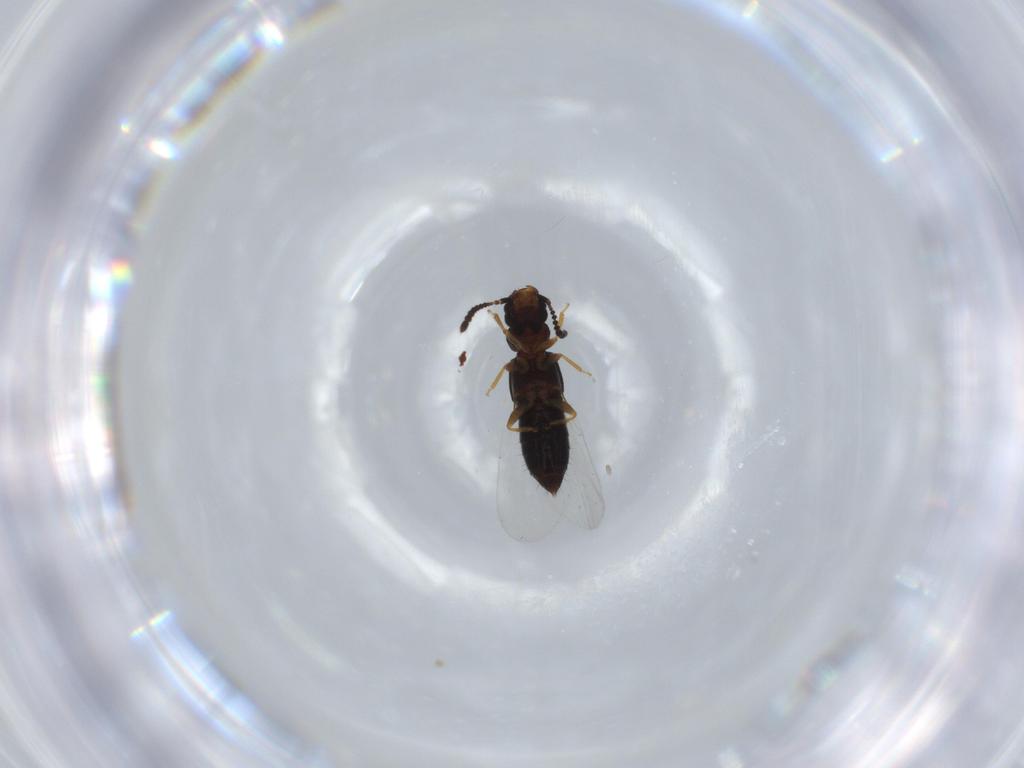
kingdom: Animalia
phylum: Arthropoda
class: Insecta
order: Coleoptera
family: Staphylinidae
